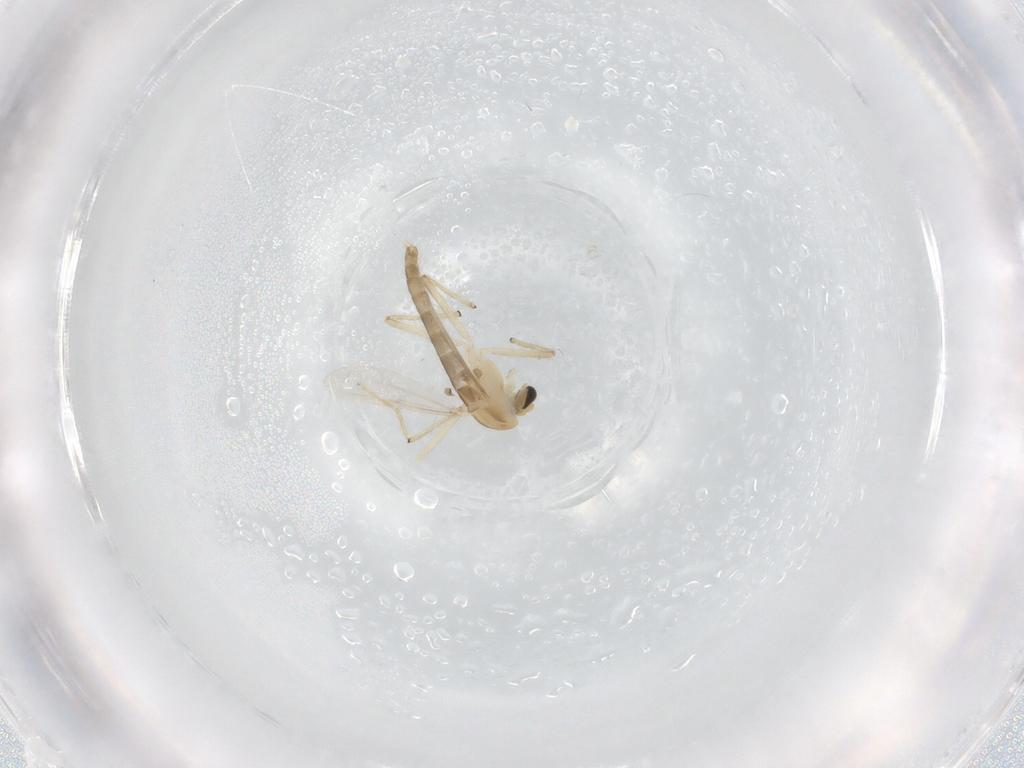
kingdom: Animalia
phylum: Arthropoda
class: Insecta
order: Diptera
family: Chironomidae
